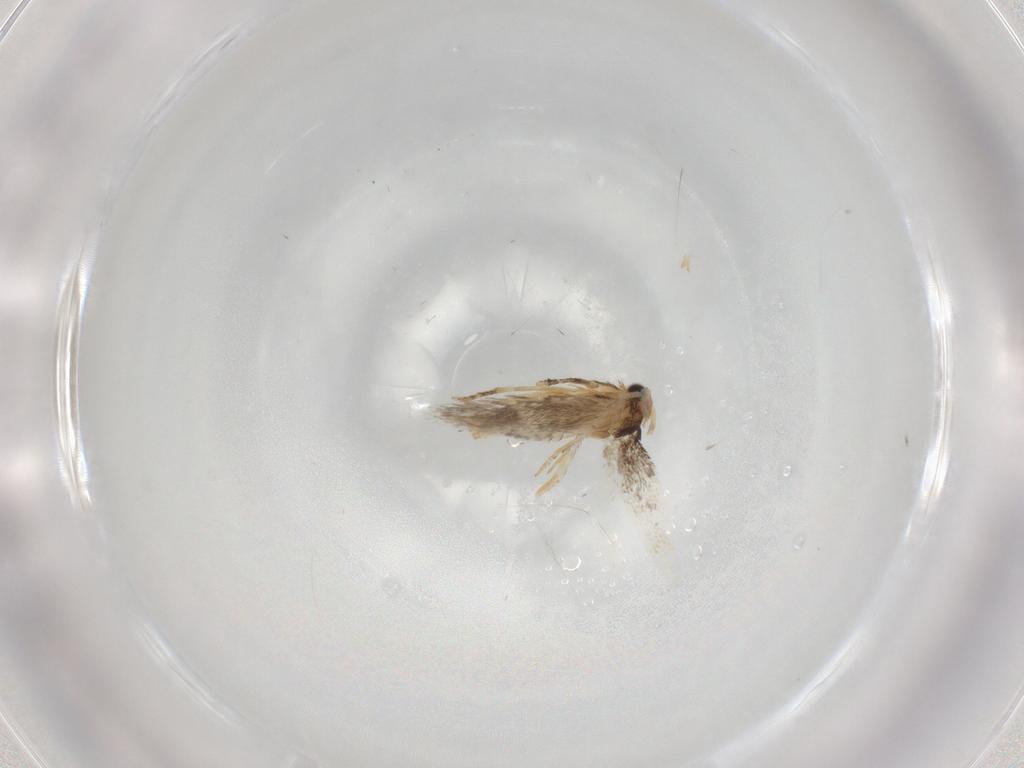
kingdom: Animalia
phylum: Arthropoda
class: Insecta
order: Lepidoptera
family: Nepticulidae
